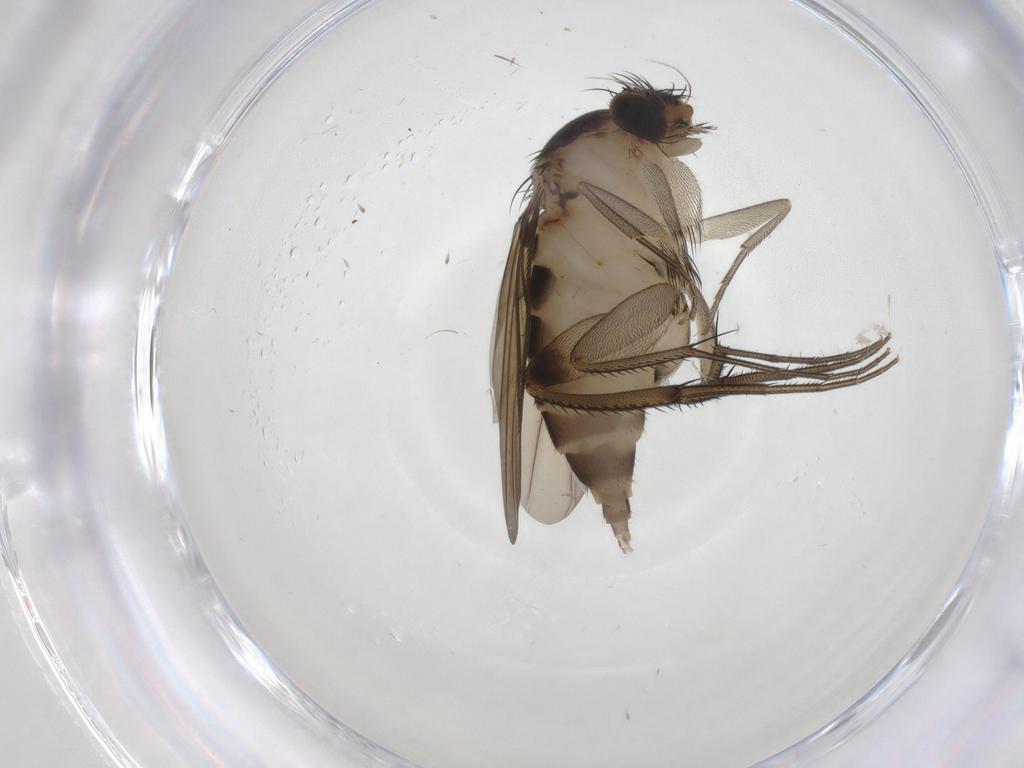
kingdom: Animalia
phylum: Arthropoda
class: Insecta
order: Diptera
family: Phoridae
